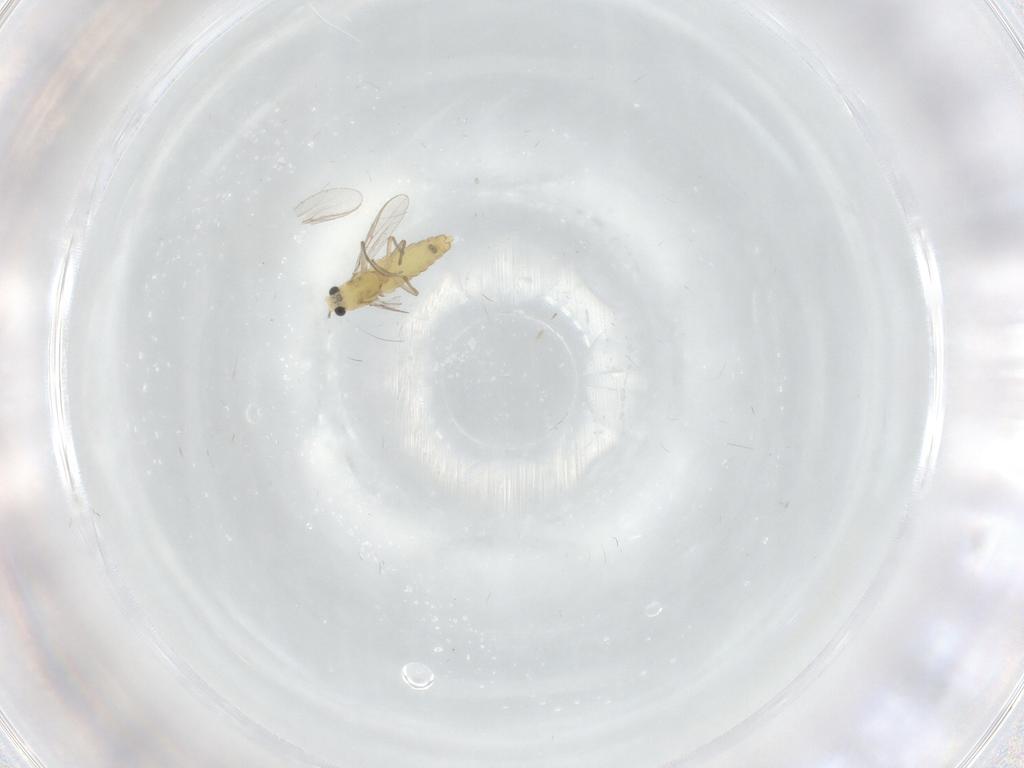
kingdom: Animalia
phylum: Arthropoda
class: Insecta
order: Diptera
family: Chironomidae
